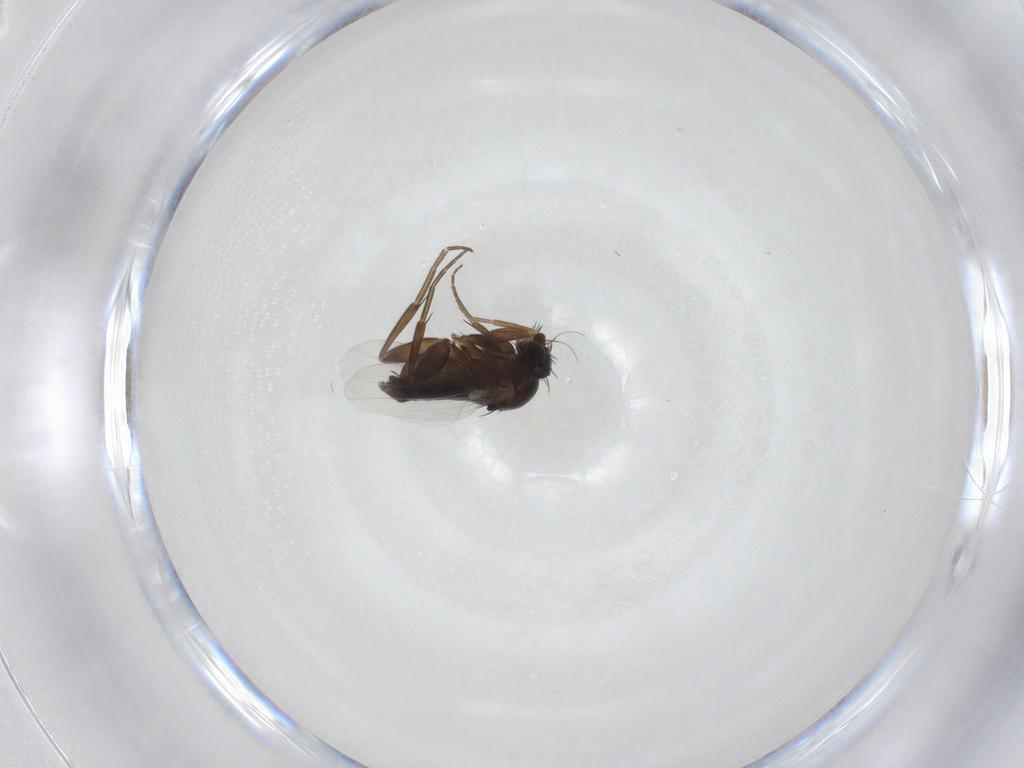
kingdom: Animalia
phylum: Arthropoda
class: Insecta
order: Diptera
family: Phoridae
